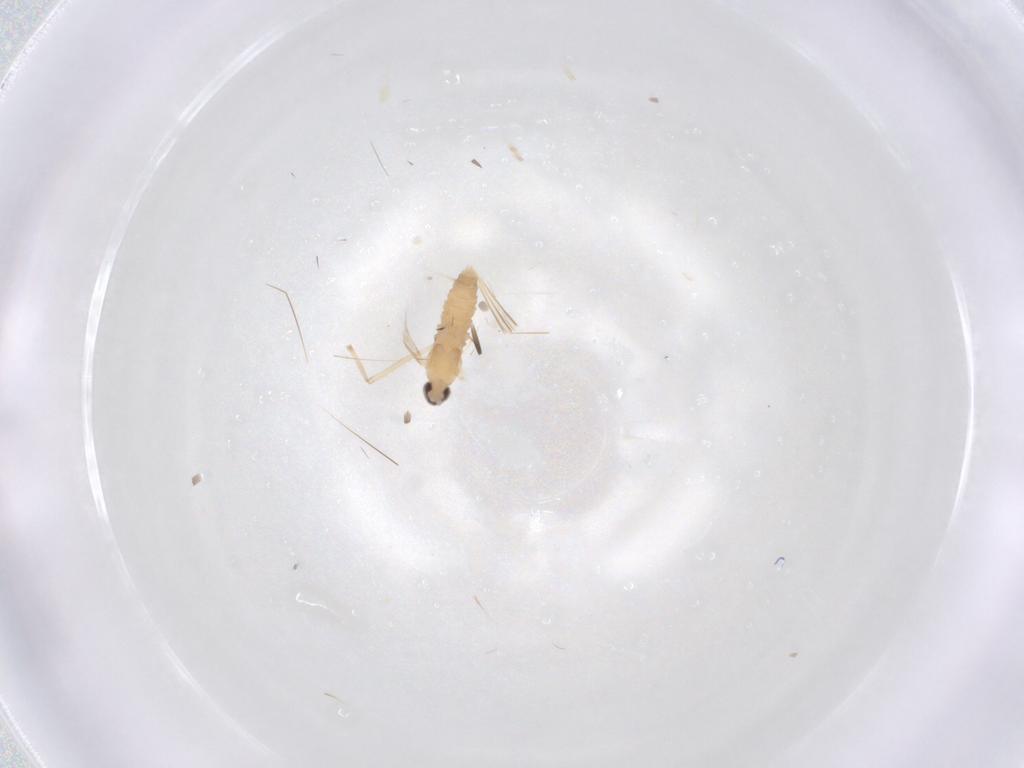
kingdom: Animalia
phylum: Arthropoda
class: Insecta
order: Diptera
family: Cecidomyiidae
